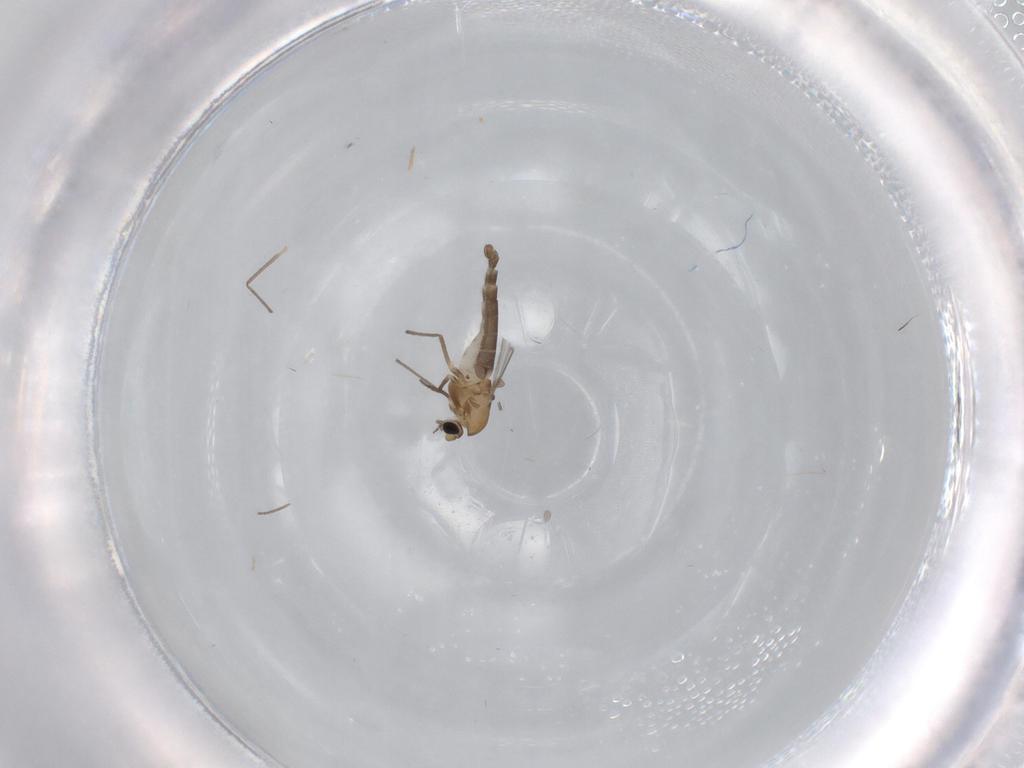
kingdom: Animalia
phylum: Arthropoda
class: Insecta
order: Diptera
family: Chironomidae
